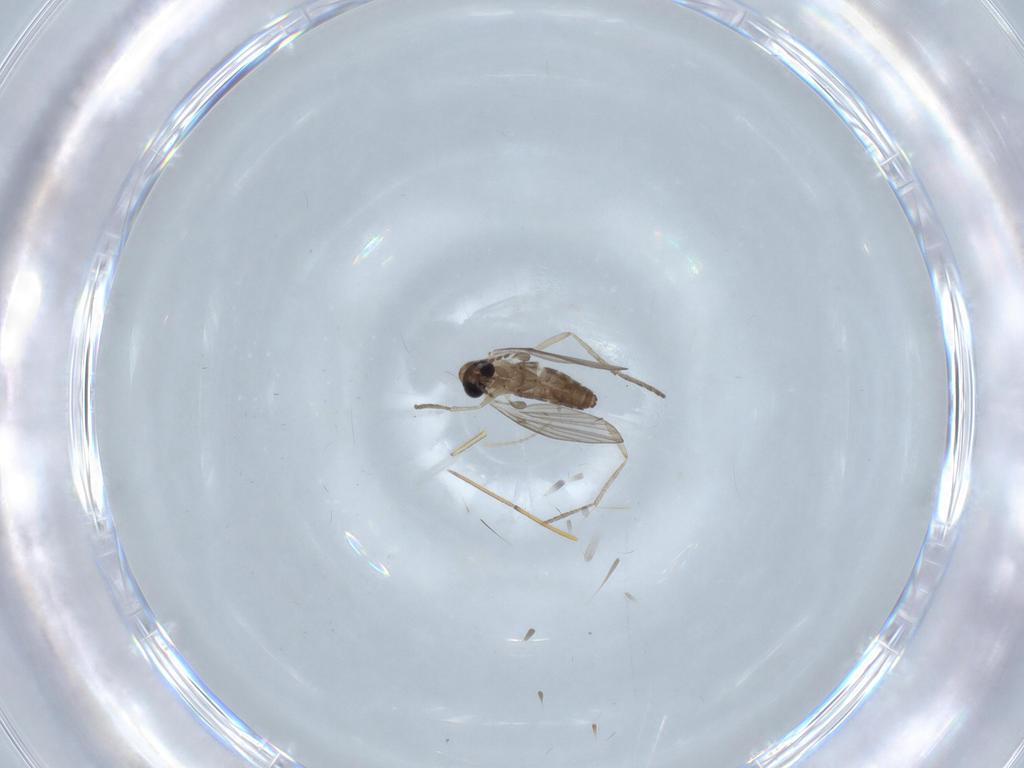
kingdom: Animalia
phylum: Arthropoda
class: Insecta
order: Diptera
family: Psychodidae
